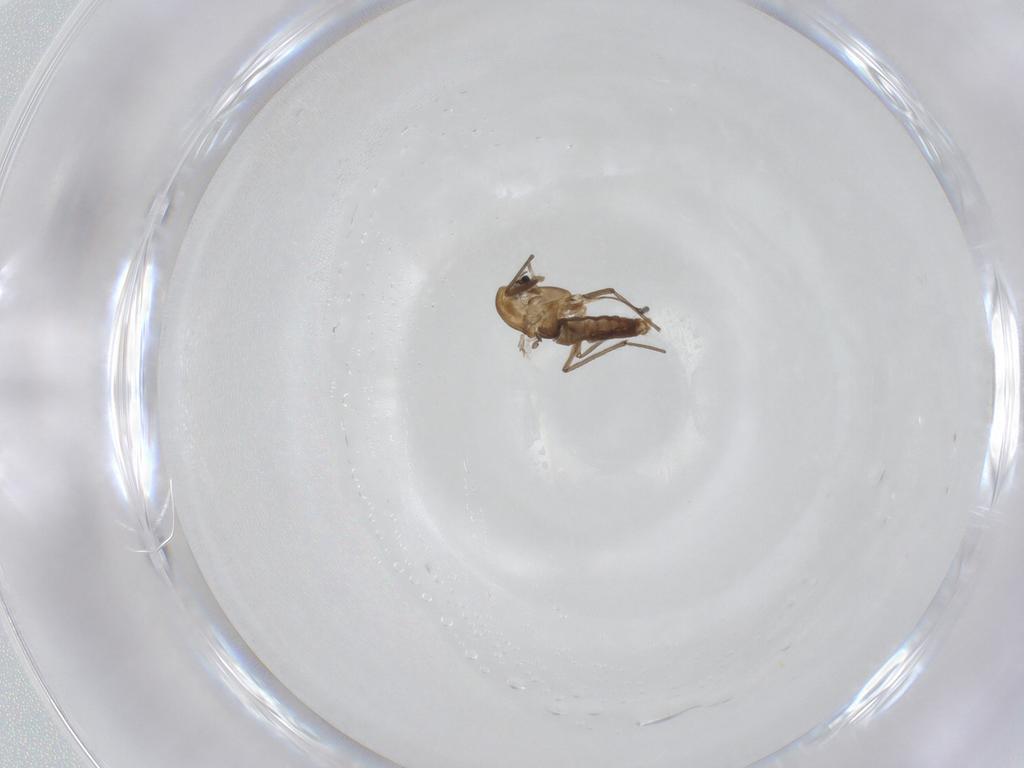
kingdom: Animalia
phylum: Arthropoda
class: Insecta
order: Diptera
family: Psychodidae
